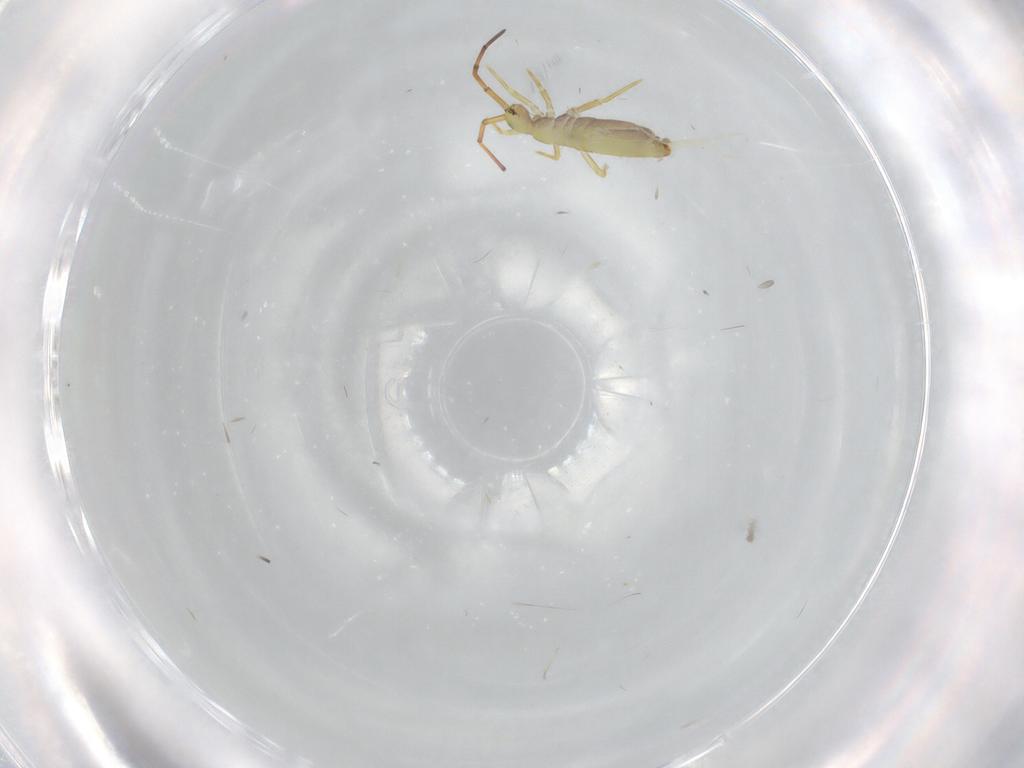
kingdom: Animalia
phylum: Arthropoda
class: Collembola
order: Entomobryomorpha
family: Paronellidae
